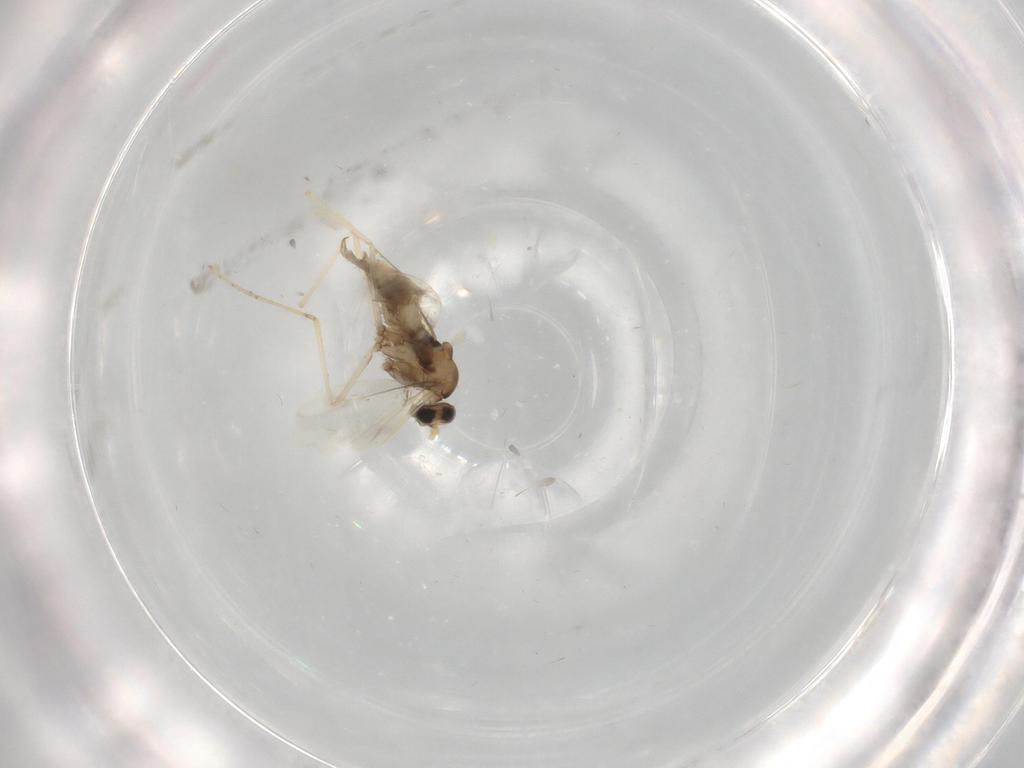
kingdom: Animalia
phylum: Arthropoda
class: Insecta
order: Diptera
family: Cecidomyiidae
